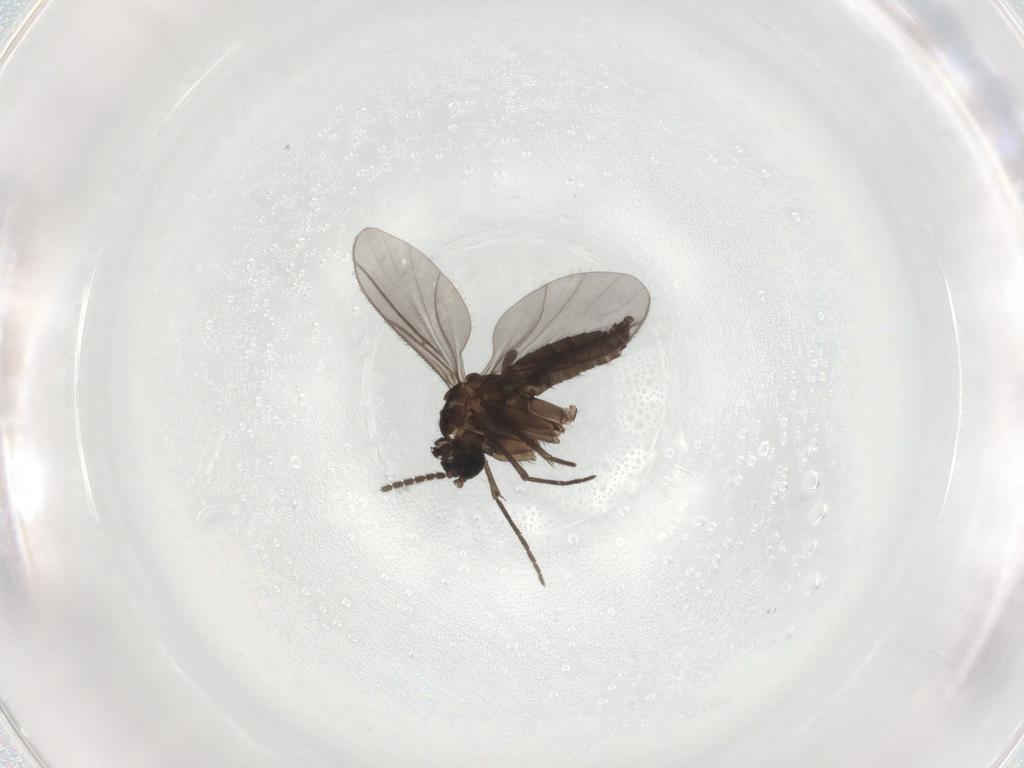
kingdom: Animalia
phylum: Arthropoda
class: Insecta
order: Diptera
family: Sciaridae
